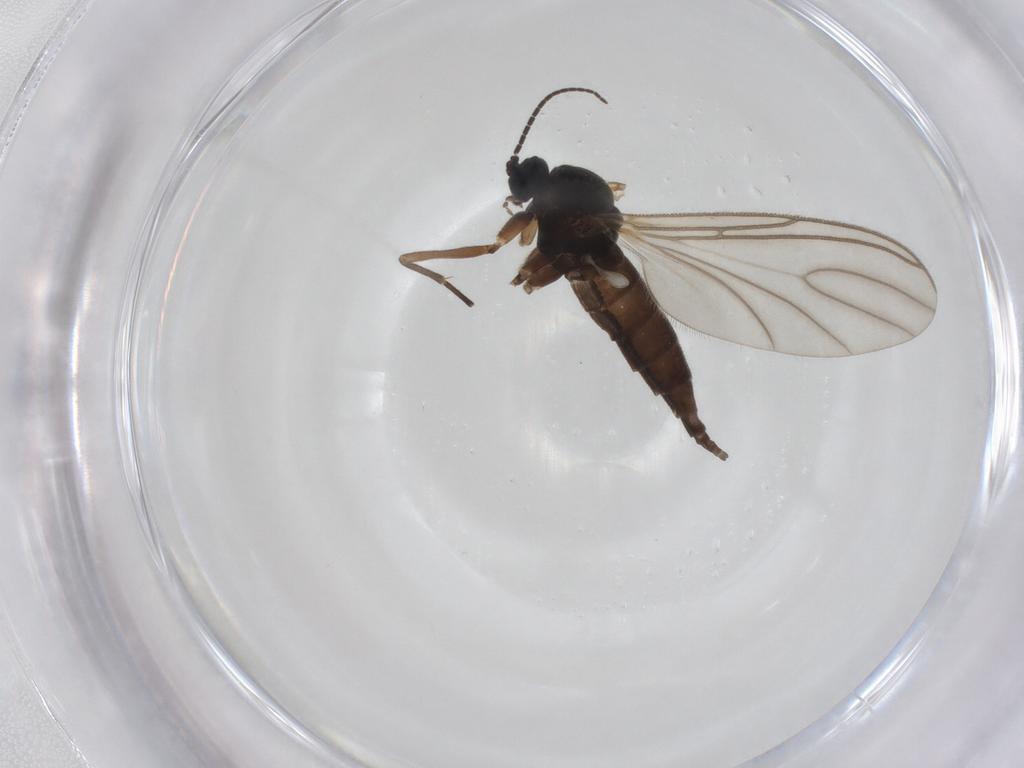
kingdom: Animalia
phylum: Arthropoda
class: Insecta
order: Diptera
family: Sciaridae
